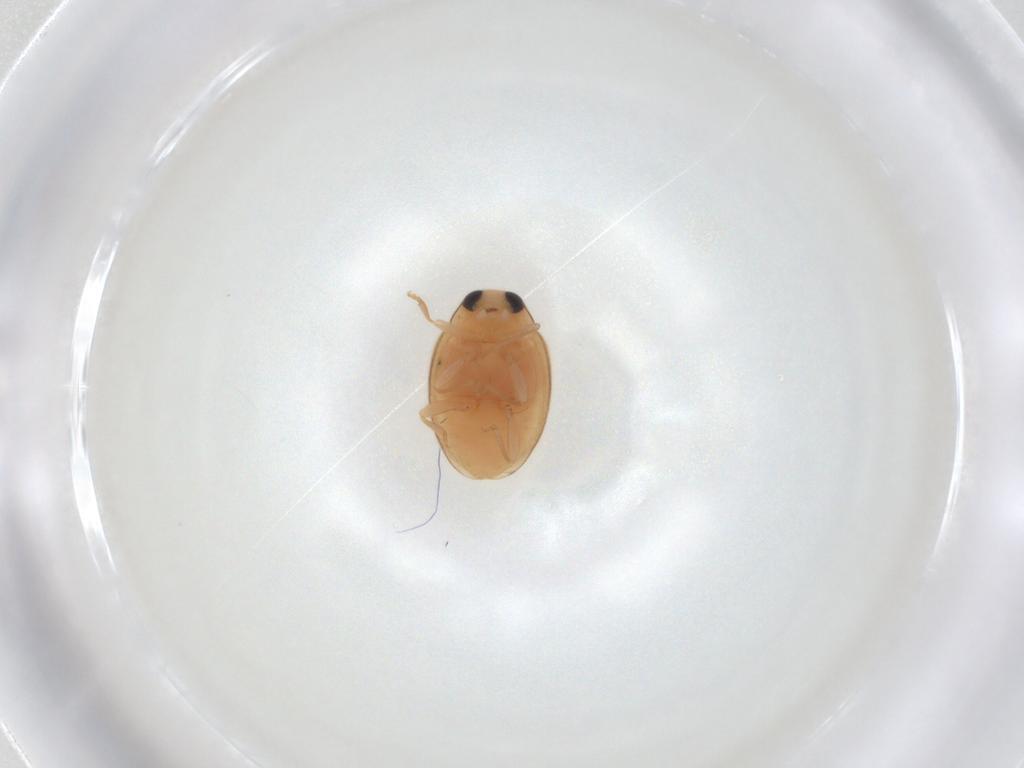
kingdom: Animalia
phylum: Arthropoda
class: Insecta
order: Coleoptera
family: Coccinellidae
